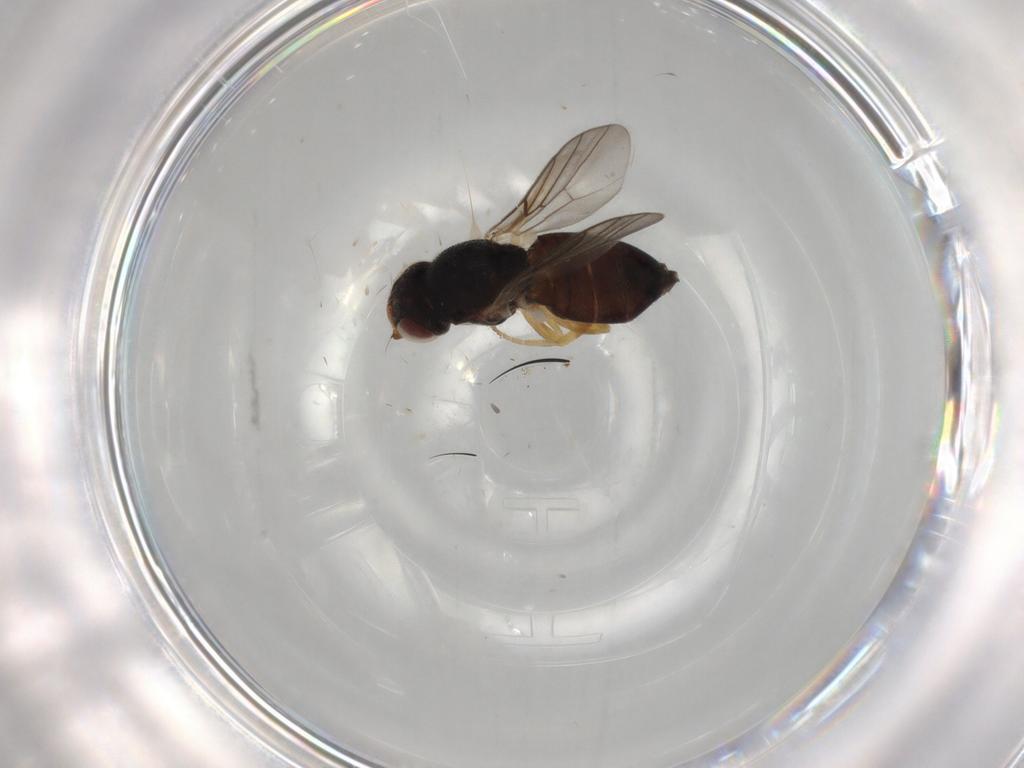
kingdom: Animalia
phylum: Arthropoda
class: Insecta
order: Diptera
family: Chloropidae
